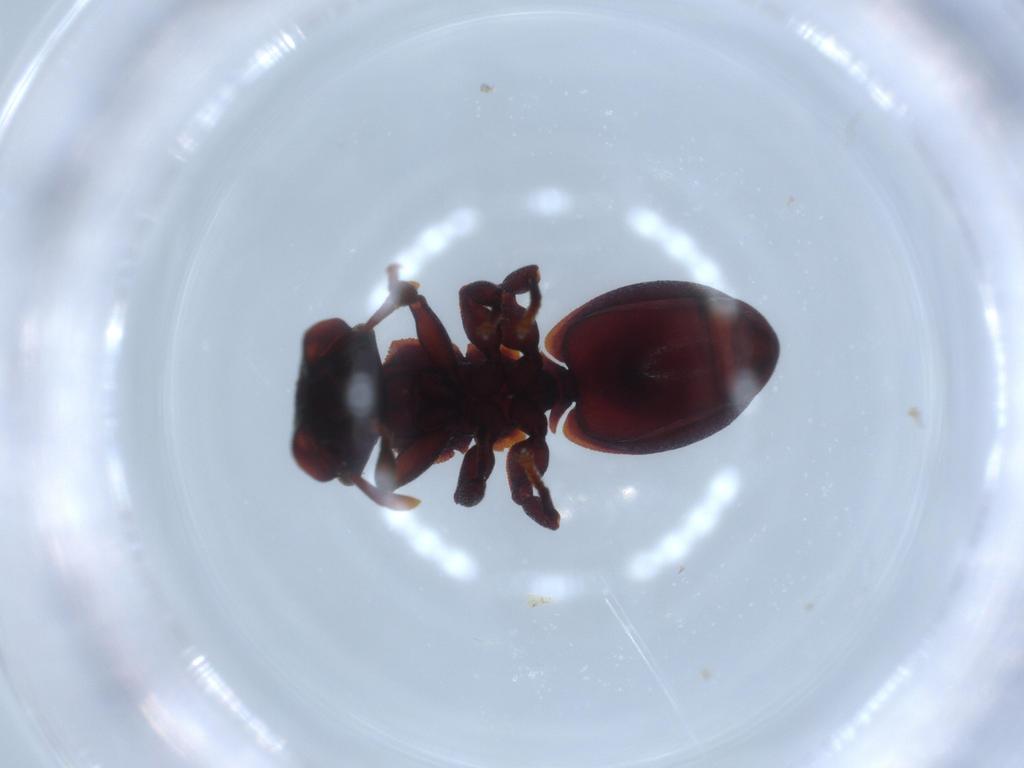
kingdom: Animalia
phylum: Arthropoda
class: Insecta
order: Hymenoptera
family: Formicidae
